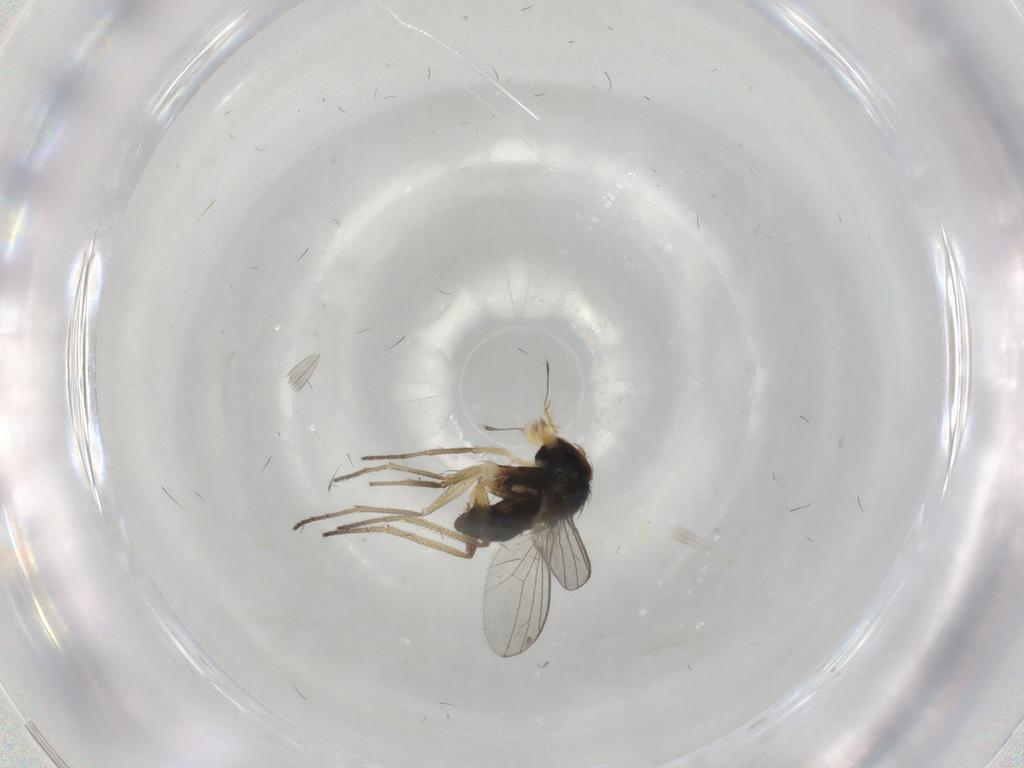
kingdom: Animalia
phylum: Arthropoda
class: Insecta
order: Diptera
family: Dolichopodidae
